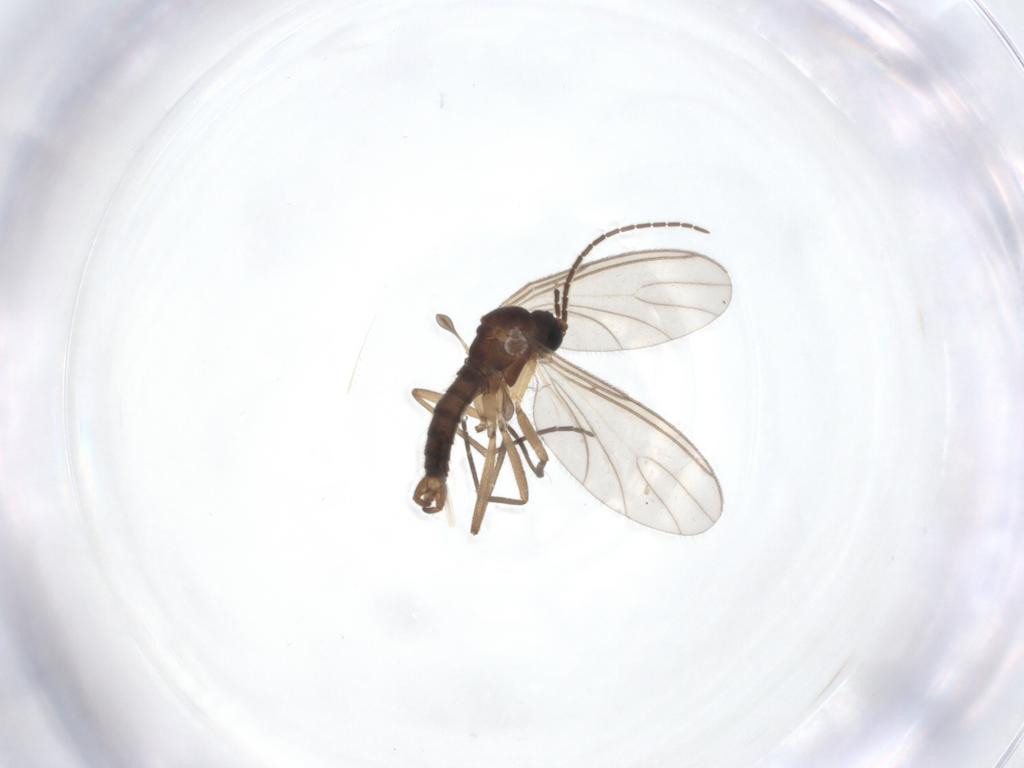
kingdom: Animalia
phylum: Arthropoda
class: Insecta
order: Diptera
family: Sciaridae
